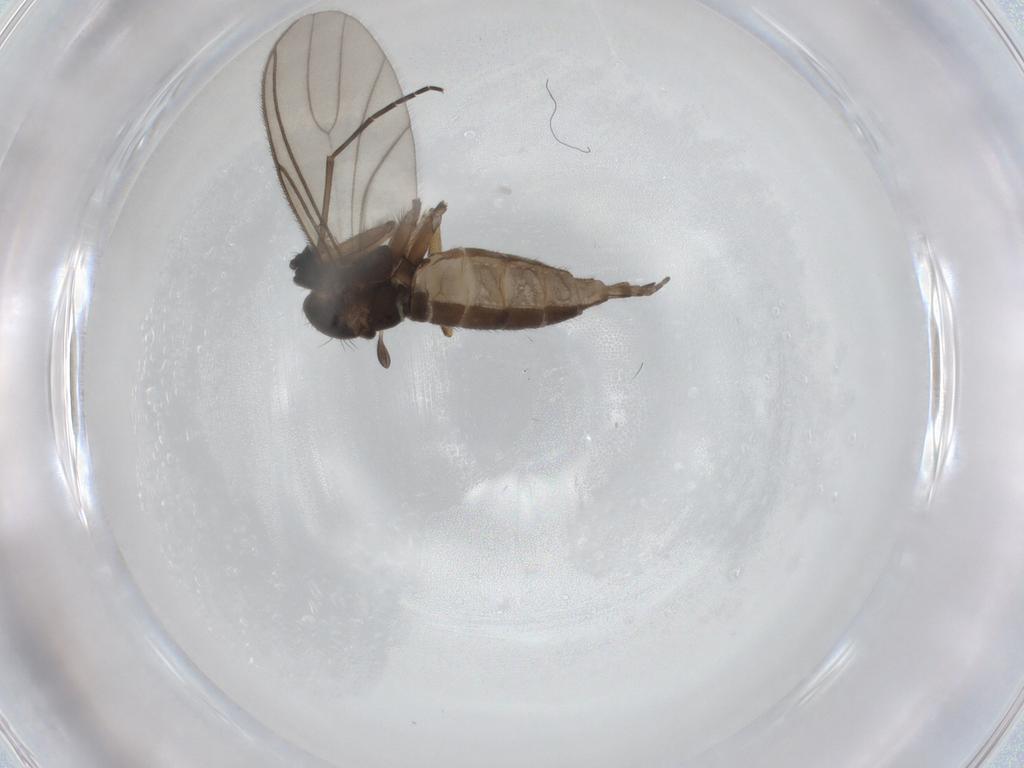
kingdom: Animalia
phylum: Arthropoda
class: Insecta
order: Diptera
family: Sciaridae
